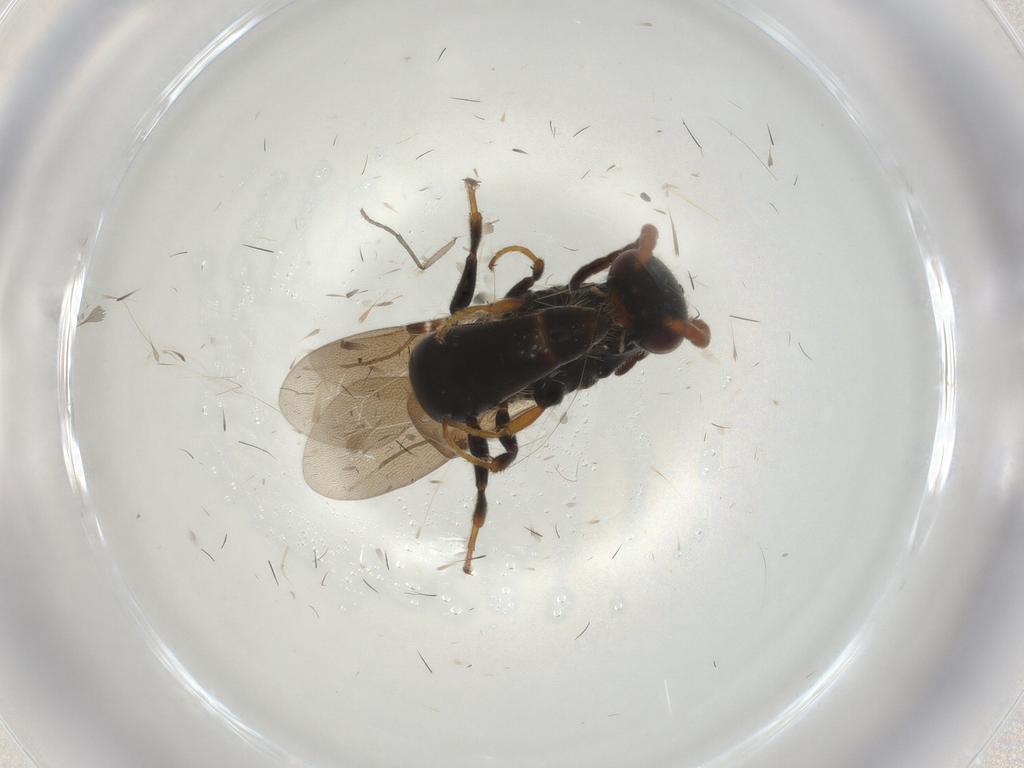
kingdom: Animalia
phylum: Arthropoda
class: Insecta
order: Hymenoptera
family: Bethylidae
